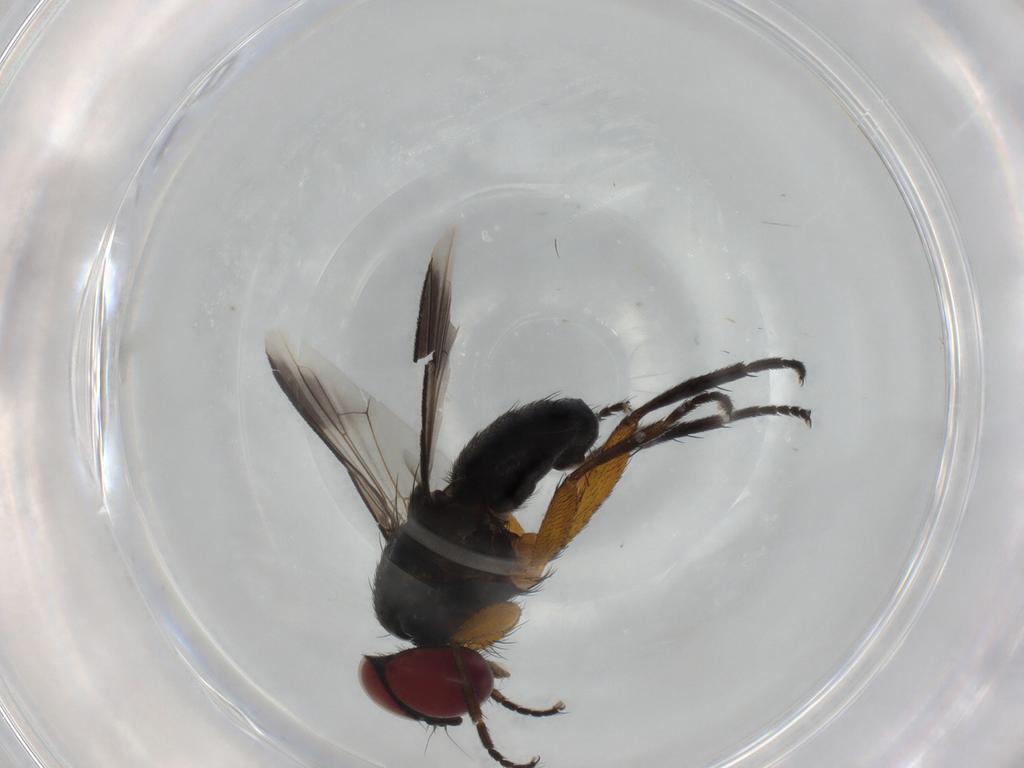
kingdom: Animalia
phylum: Arthropoda
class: Insecta
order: Diptera
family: Tachinidae
